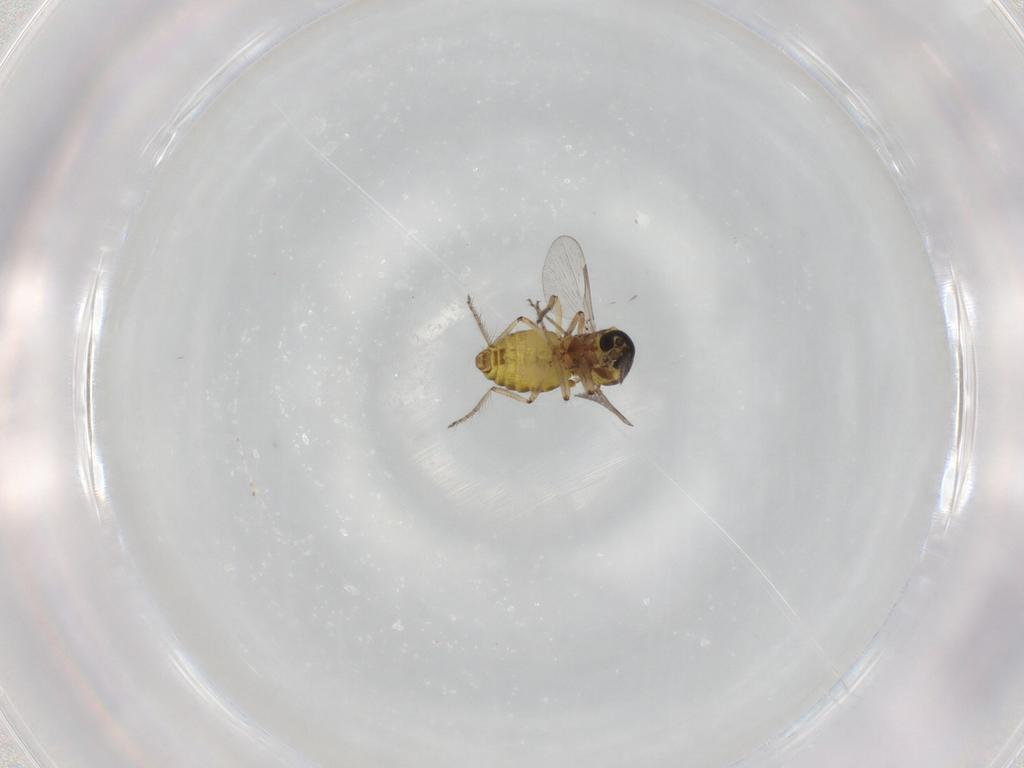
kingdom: Animalia
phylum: Arthropoda
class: Insecta
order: Diptera
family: Ceratopogonidae
